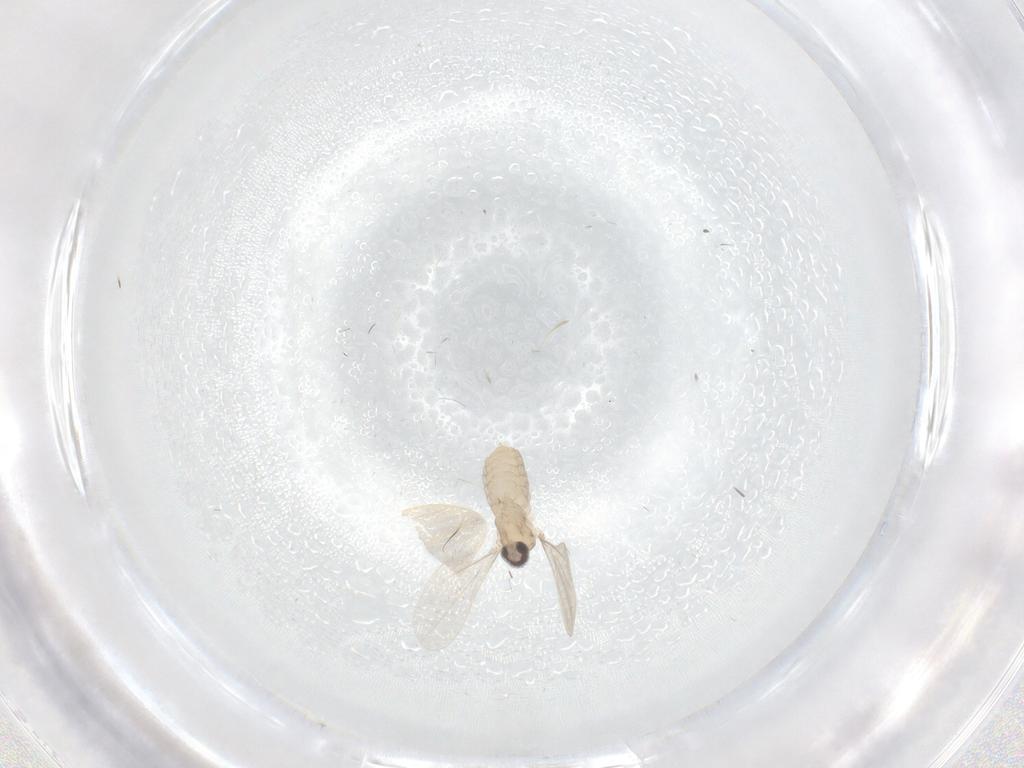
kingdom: Animalia
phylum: Arthropoda
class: Insecta
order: Diptera
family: Cecidomyiidae
